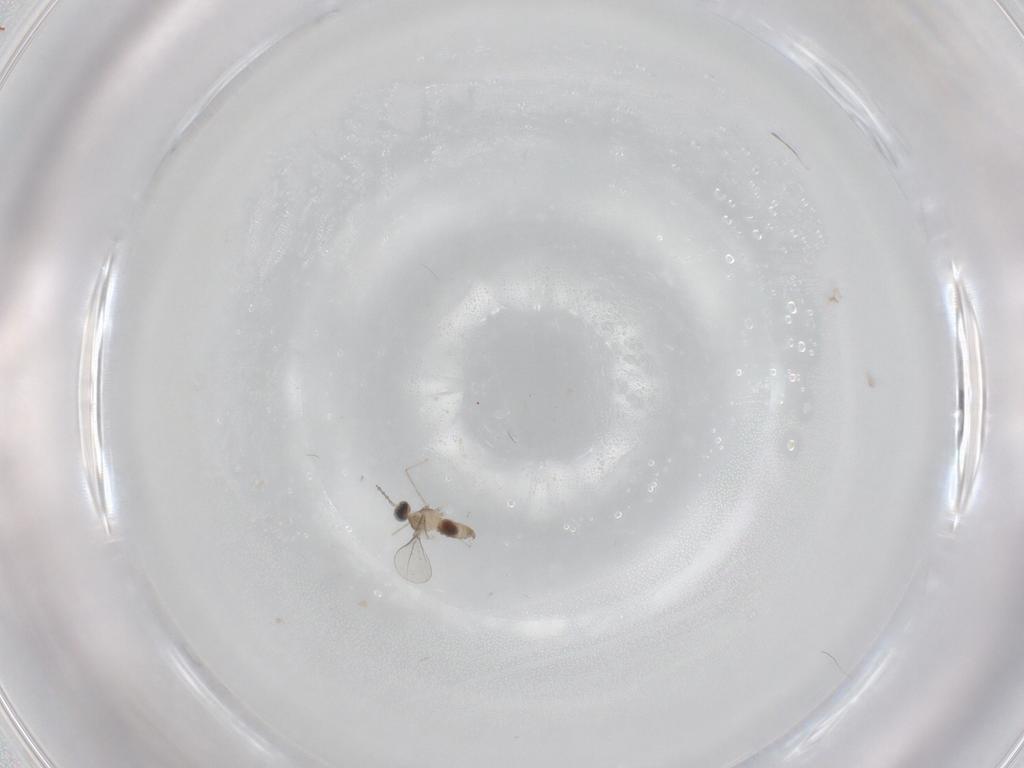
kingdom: Animalia
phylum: Arthropoda
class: Insecta
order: Diptera
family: Cecidomyiidae
